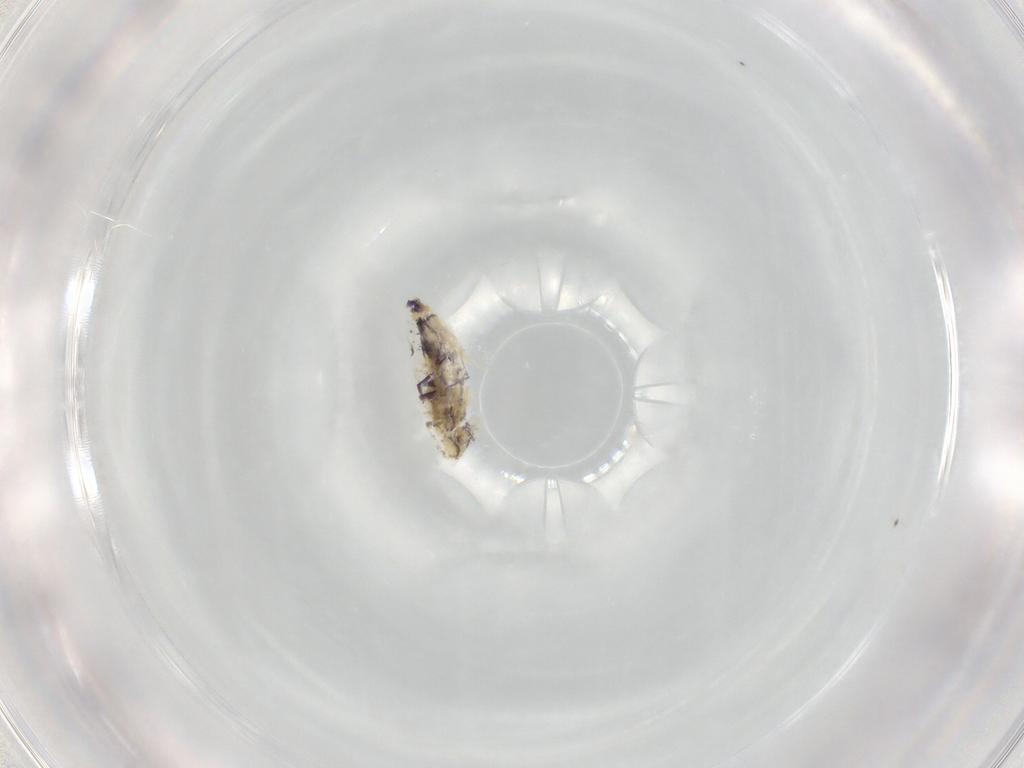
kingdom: Animalia
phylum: Arthropoda
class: Collembola
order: Entomobryomorpha
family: Entomobryidae
